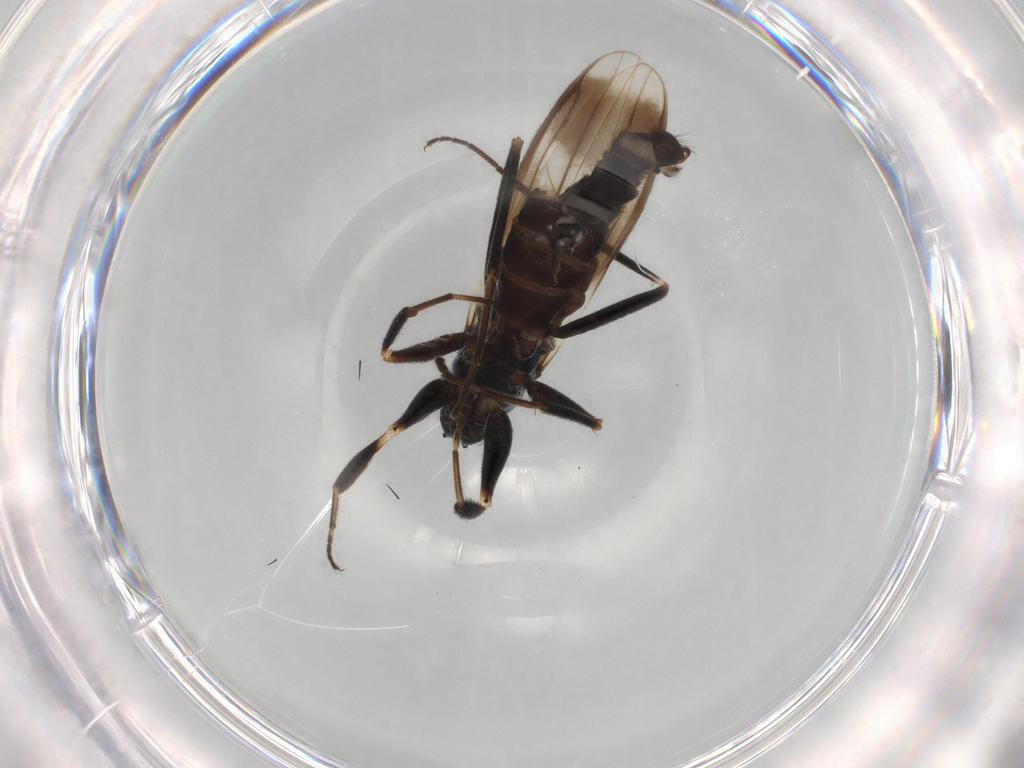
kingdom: Animalia
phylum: Arthropoda
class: Insecta
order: Diptera
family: Hybotidae
